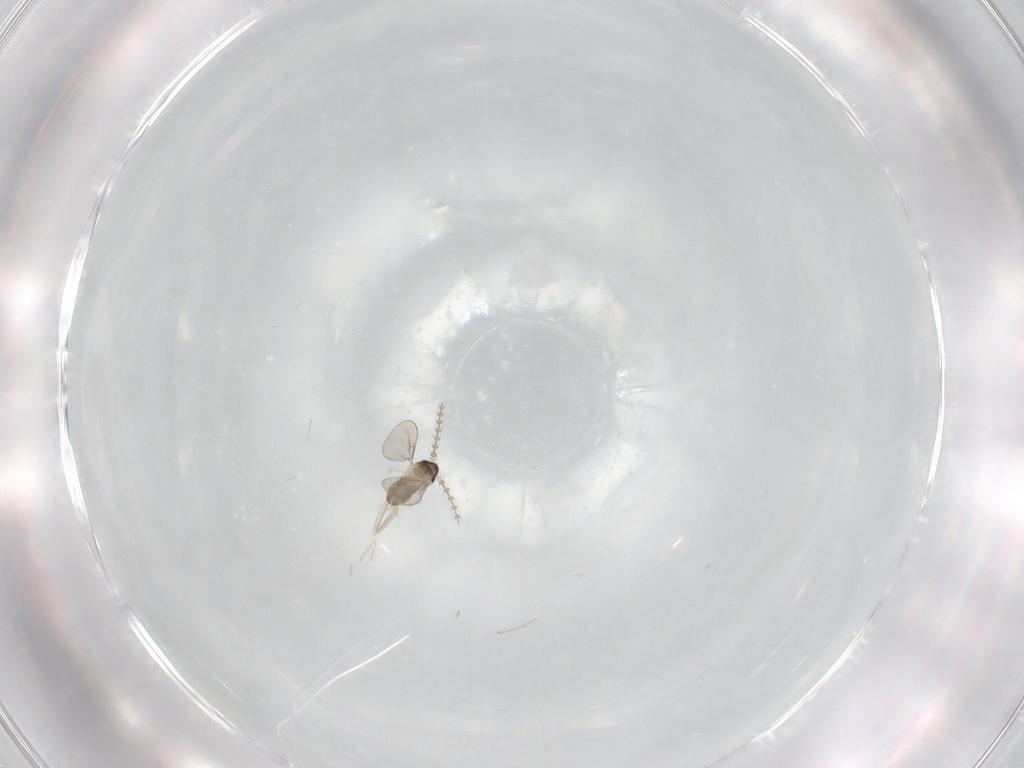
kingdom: Animalia
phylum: Arthropoda
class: Insecta
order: Diptera
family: Cecidomyiidae
